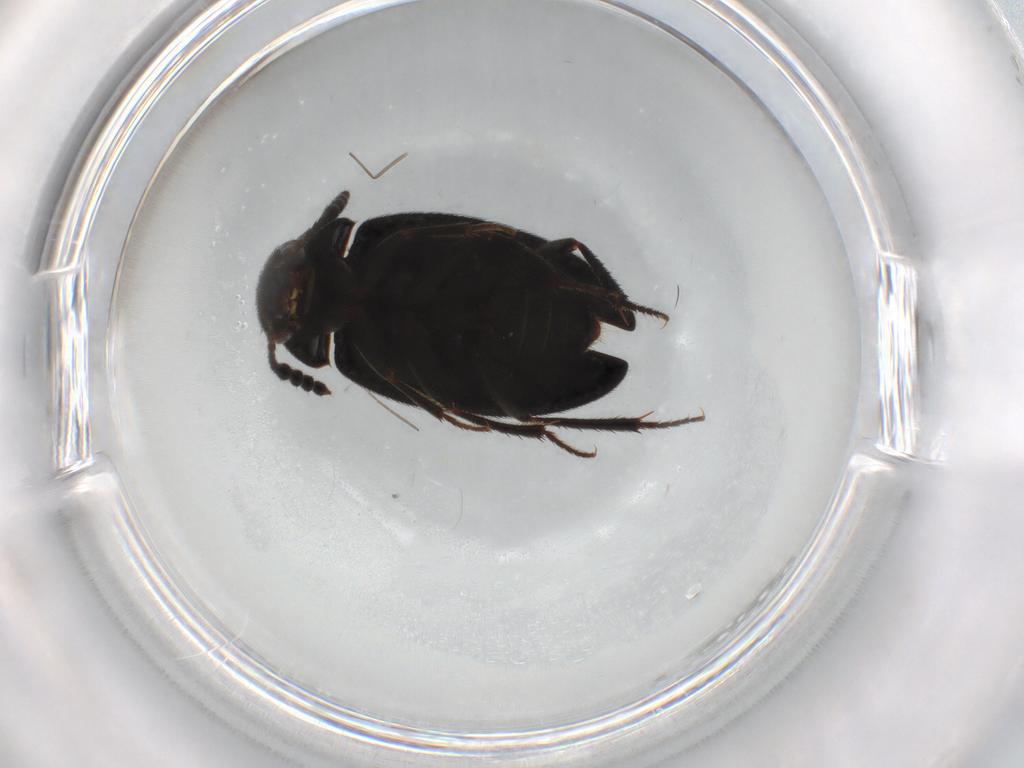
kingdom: Animalia
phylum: Arthropoda
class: Insecta
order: Coleoptera
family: Leiodidae
